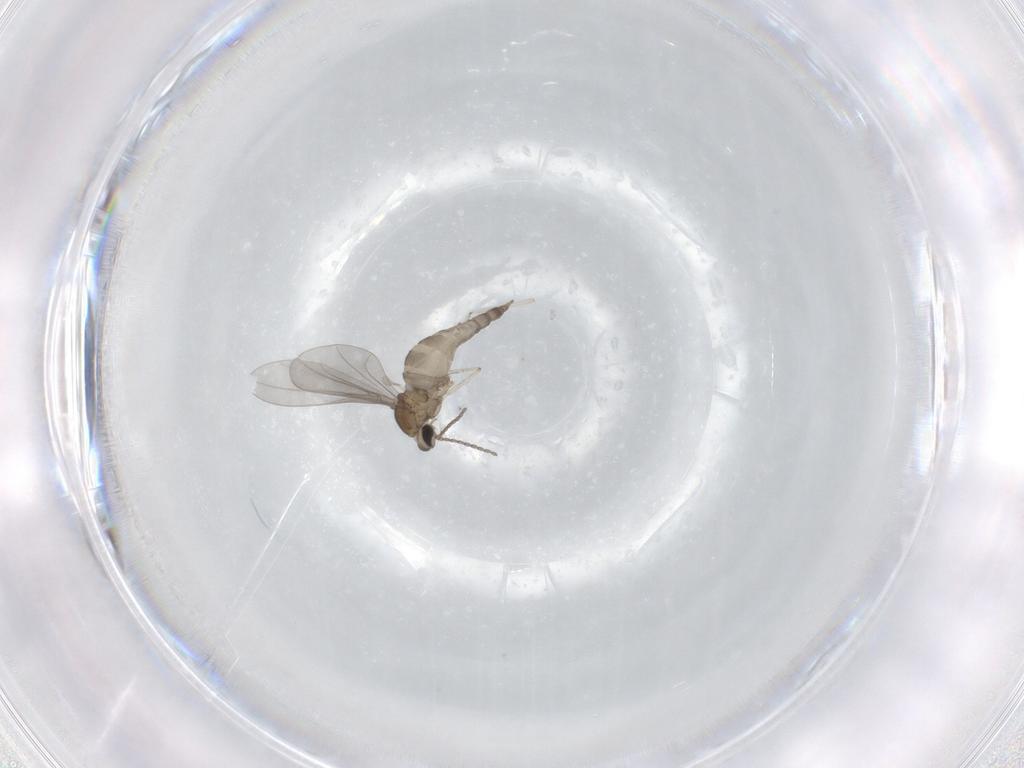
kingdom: Animalia
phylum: Arthropoda
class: Insecta
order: Diptera
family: Cecidomyiidae
